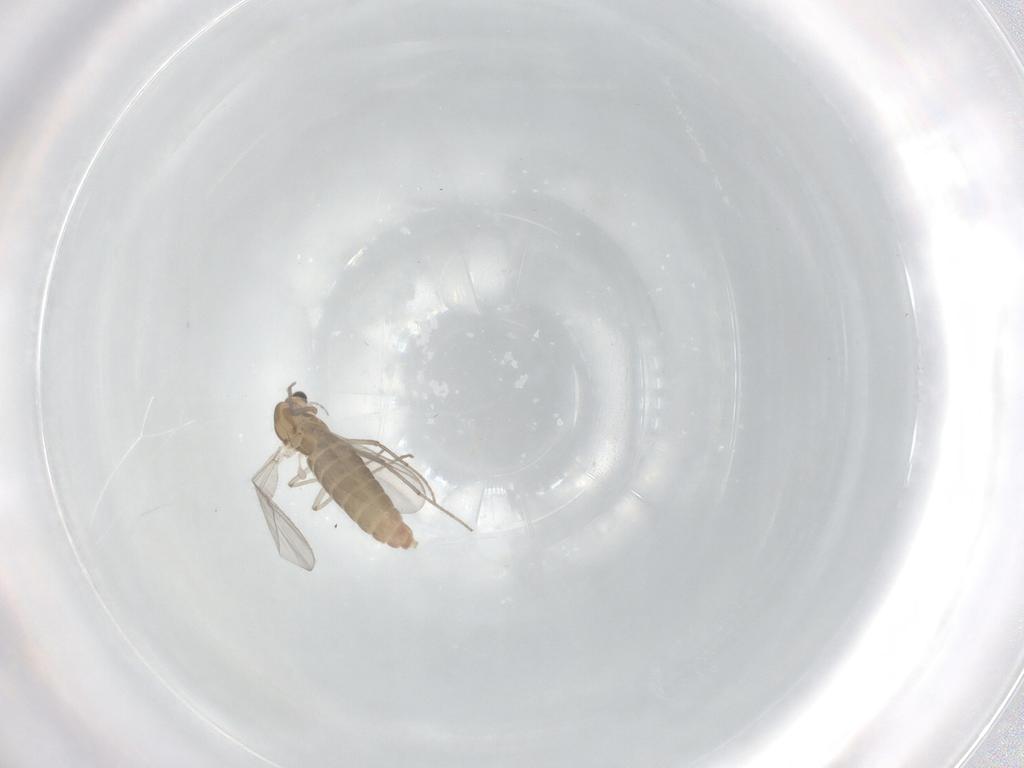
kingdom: Animalia
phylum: Arthropoda
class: Insecta
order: Diptera
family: Chironomidae
